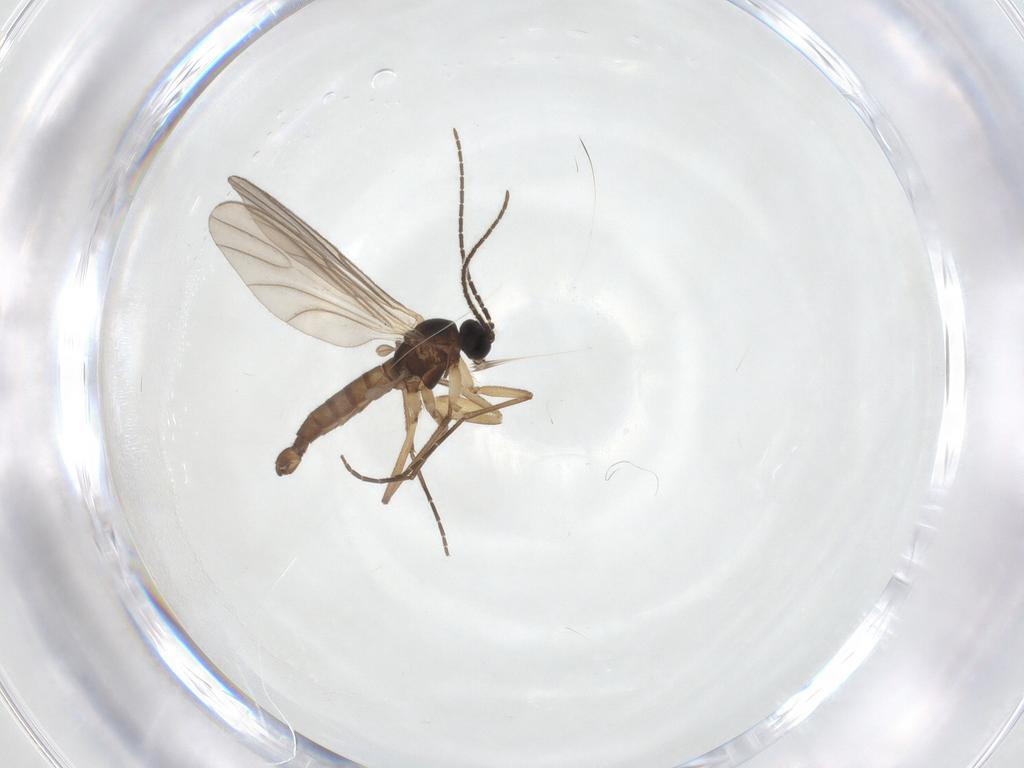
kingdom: Animalia
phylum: Arthropoda
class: Insecta
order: Diptera
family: Sciaridae
